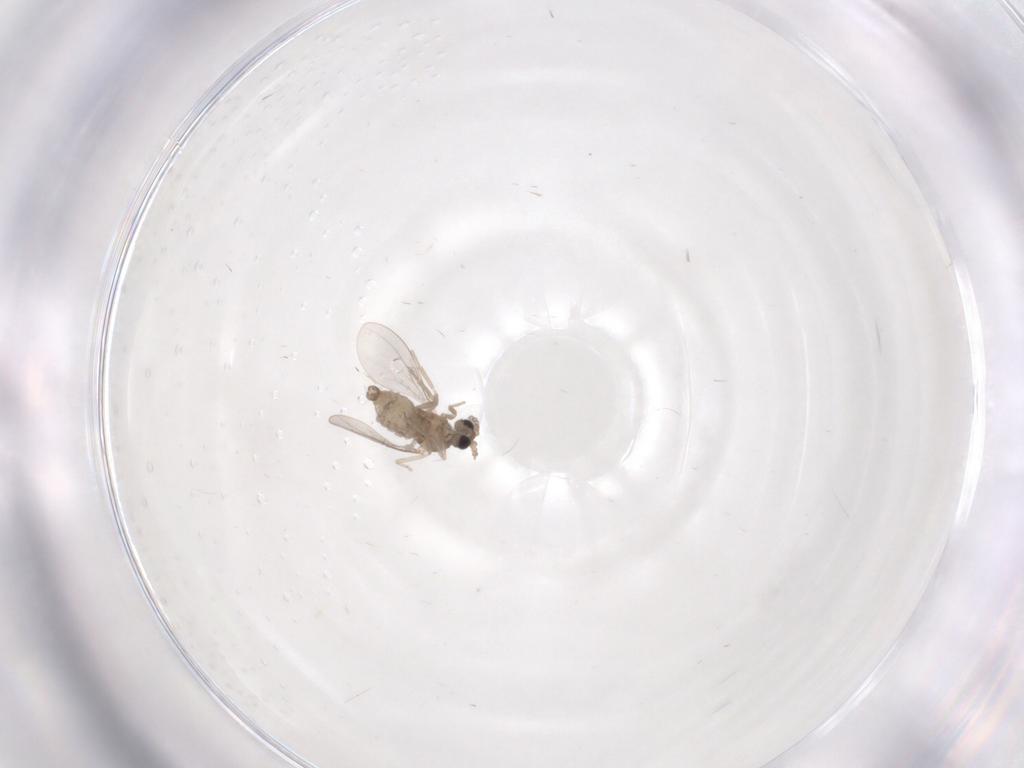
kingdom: Animalia
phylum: Arthropoda
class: Insecta
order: Diptera
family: Cecidomyiidae
